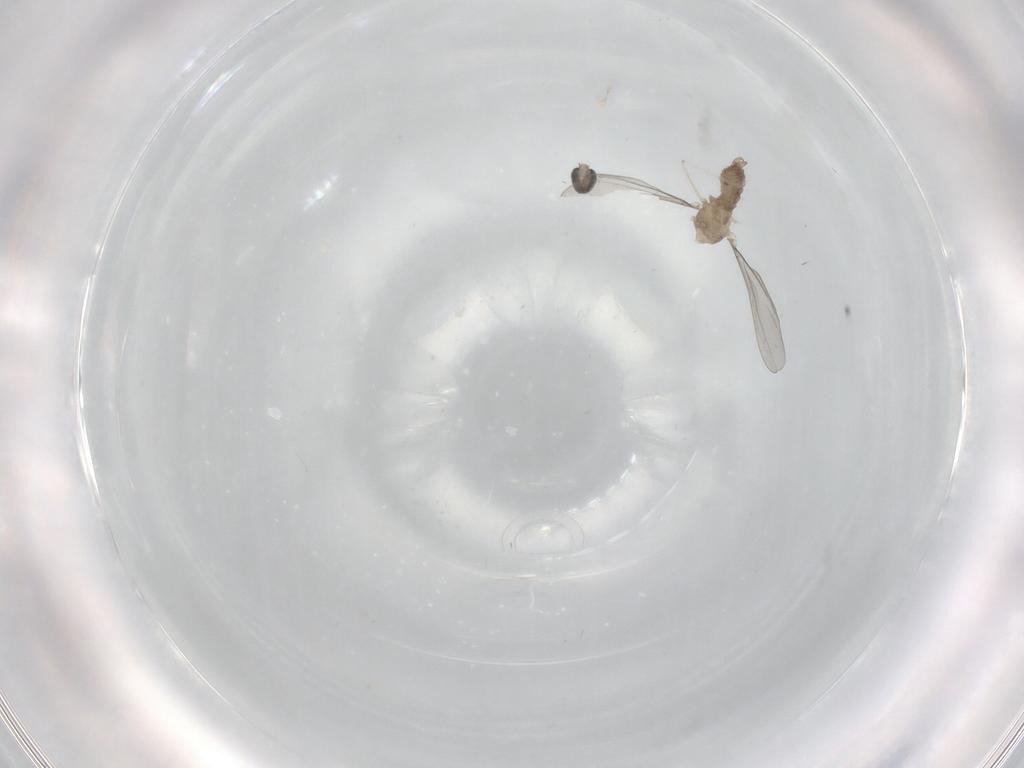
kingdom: Animalia
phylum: Arthropoda
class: Insecta
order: Diptera
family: Cecidomyiidae
